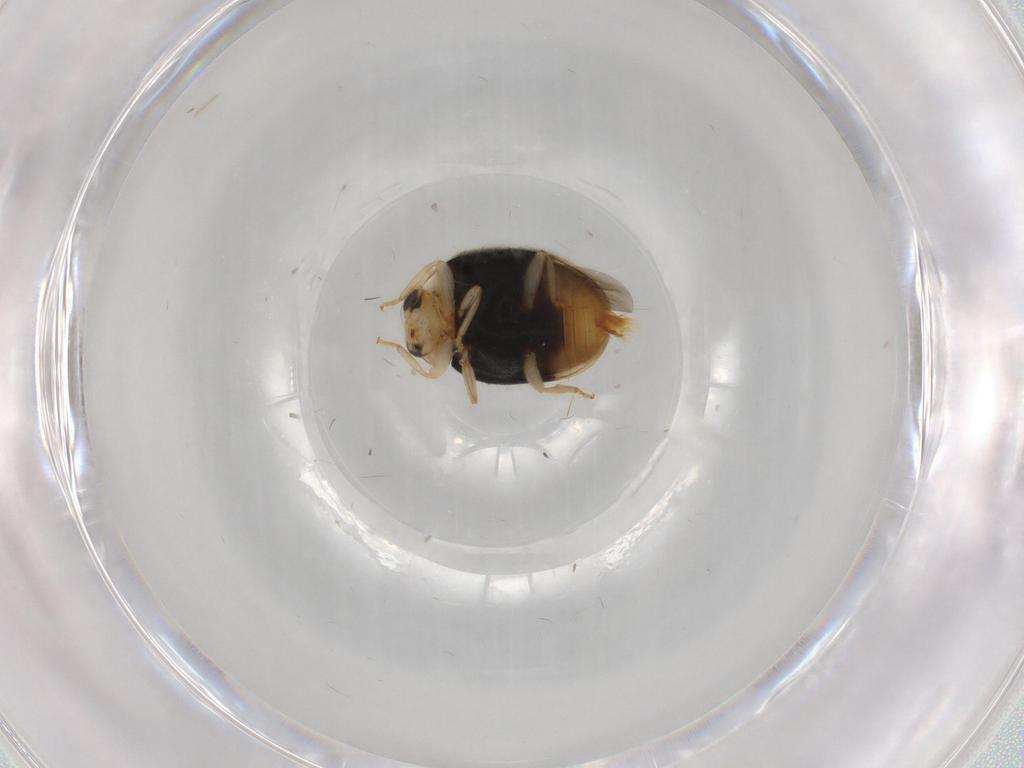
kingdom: Animalia
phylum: Arthropoda
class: Insecta
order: Coleoptera
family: Coccinellidae
